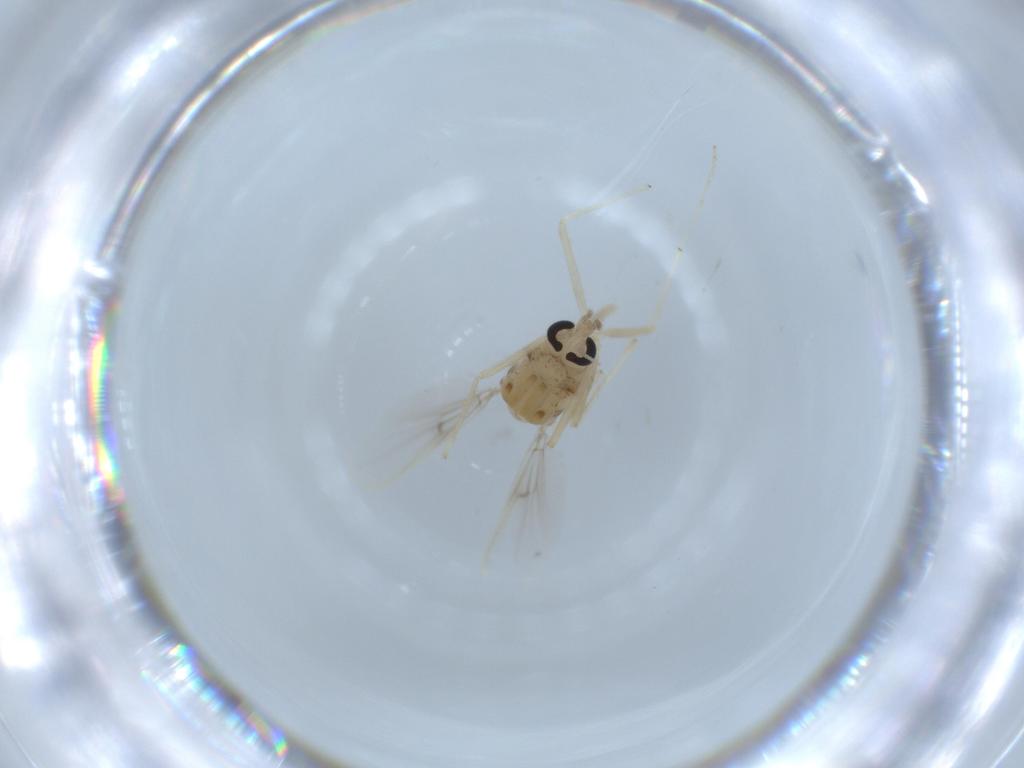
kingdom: Animalia
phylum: Arthropoda
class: Insecta
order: Diptera
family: Chironomidae
